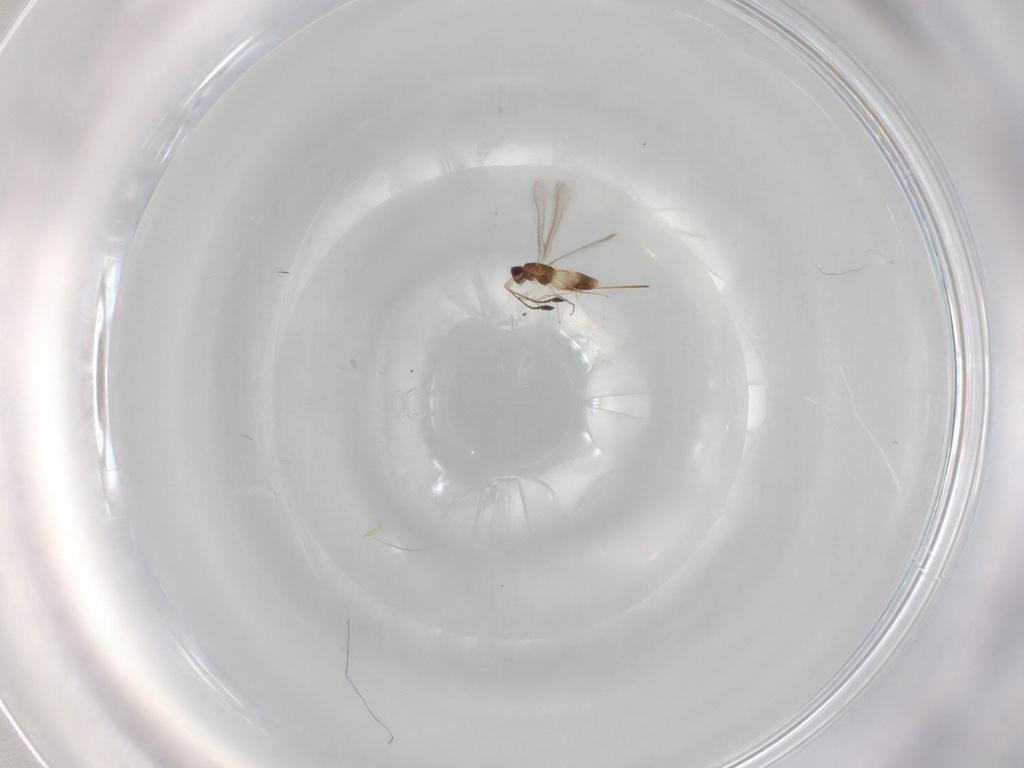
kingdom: Animalia
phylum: Arthropoda
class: Insecta
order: Hymenoptera
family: Mymaridae
